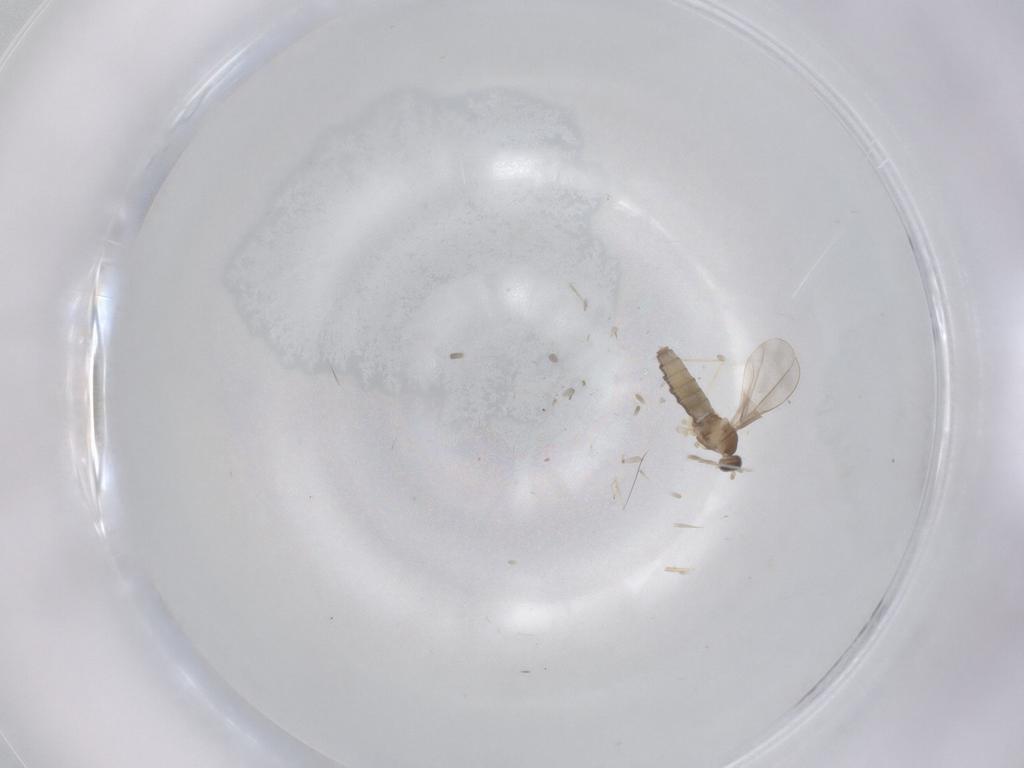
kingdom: Animalia
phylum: Arthropoda
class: Insecta
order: Diptera
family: Cecidomyiidae
